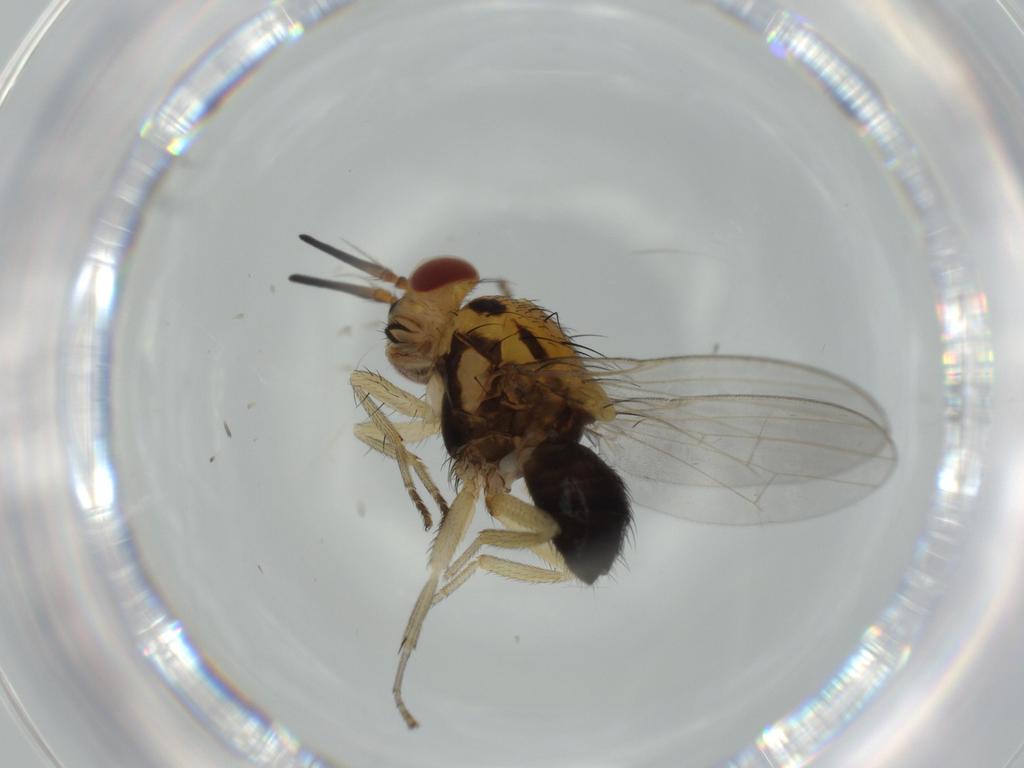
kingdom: Animalia
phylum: Arthropoda
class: Insecta
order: Diptera
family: Lauxaniidae
